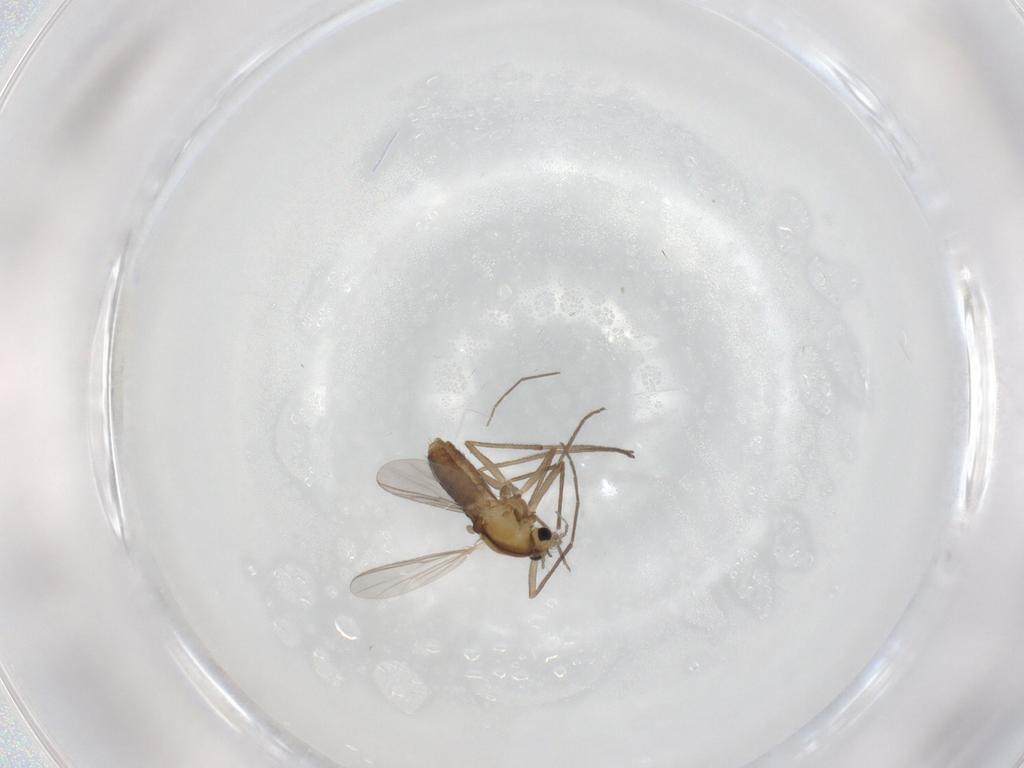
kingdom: Animalia
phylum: Arthropoda
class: Insecta
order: Diptera
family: Chironomidae
